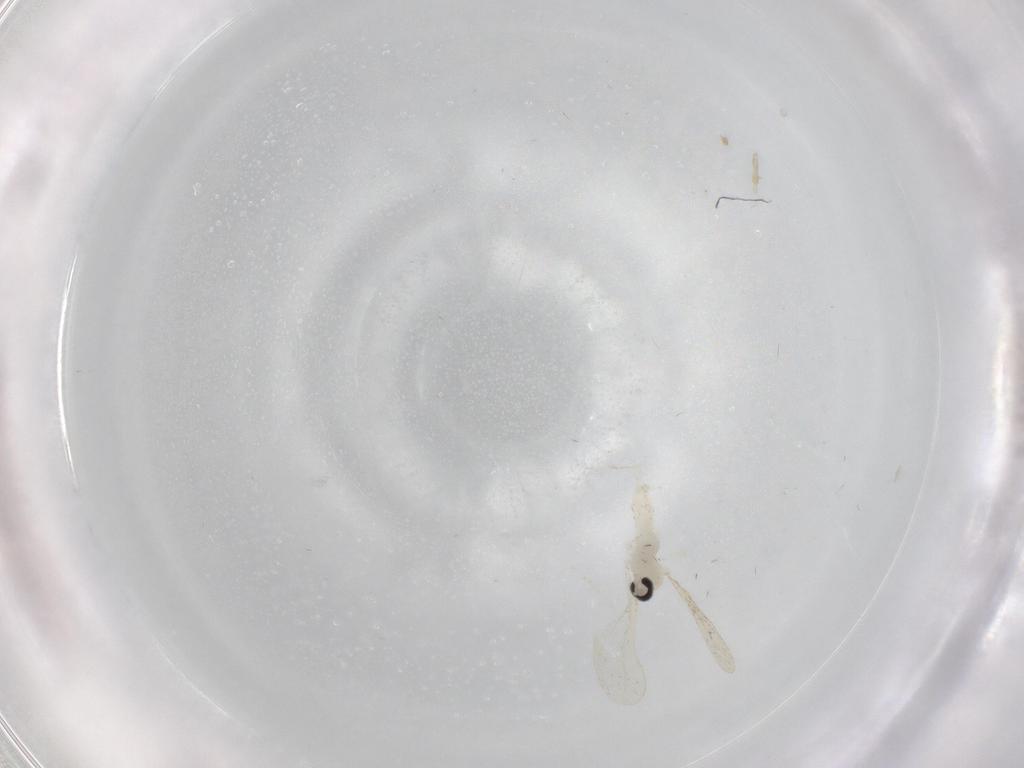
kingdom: Animalia
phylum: Arthropoda
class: Insecta
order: Diptera
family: Cecidomyiidae
